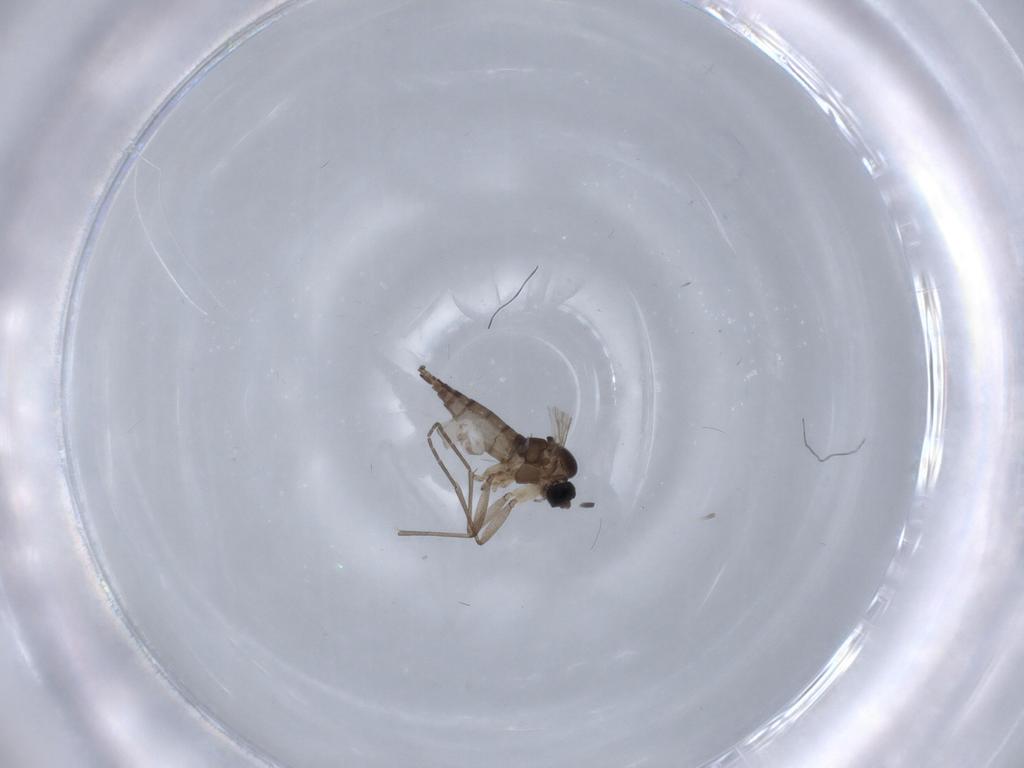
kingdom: Animalia
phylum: Arthropoda
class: Insecta
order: Diptera
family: Sciaridae
